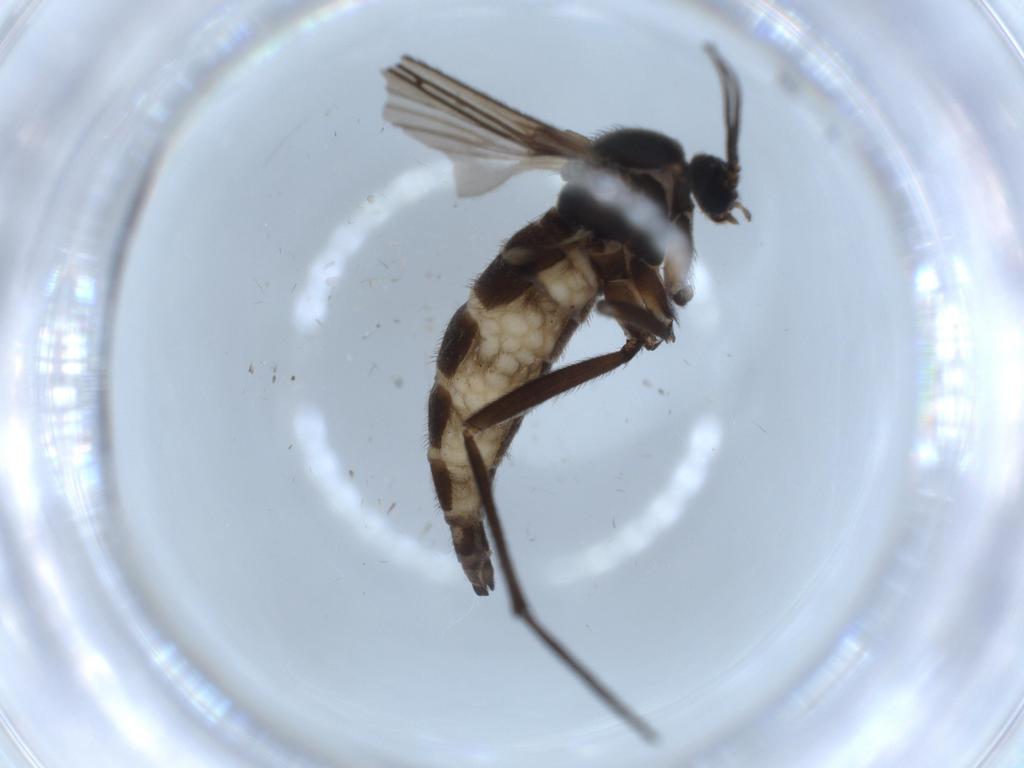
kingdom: Animalia
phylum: Arthropoda
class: Insecta
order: Diptera
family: Sciaridae
